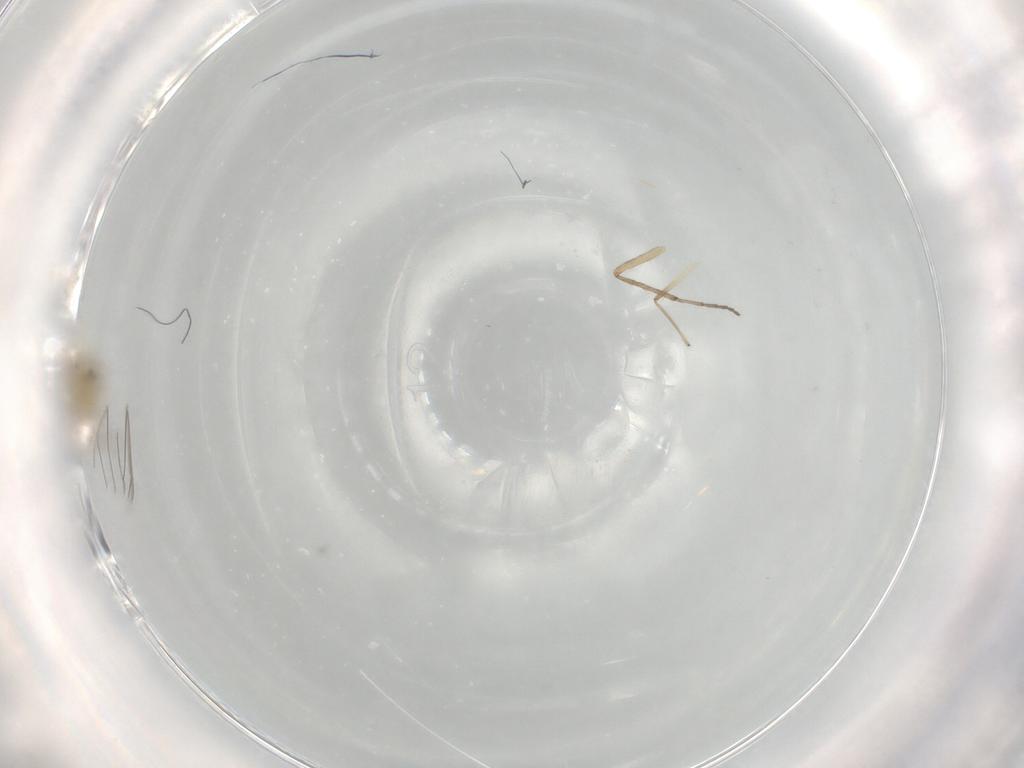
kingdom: Animalia
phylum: Arthropoda
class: Insecta
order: Diptera
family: Chironomidae
